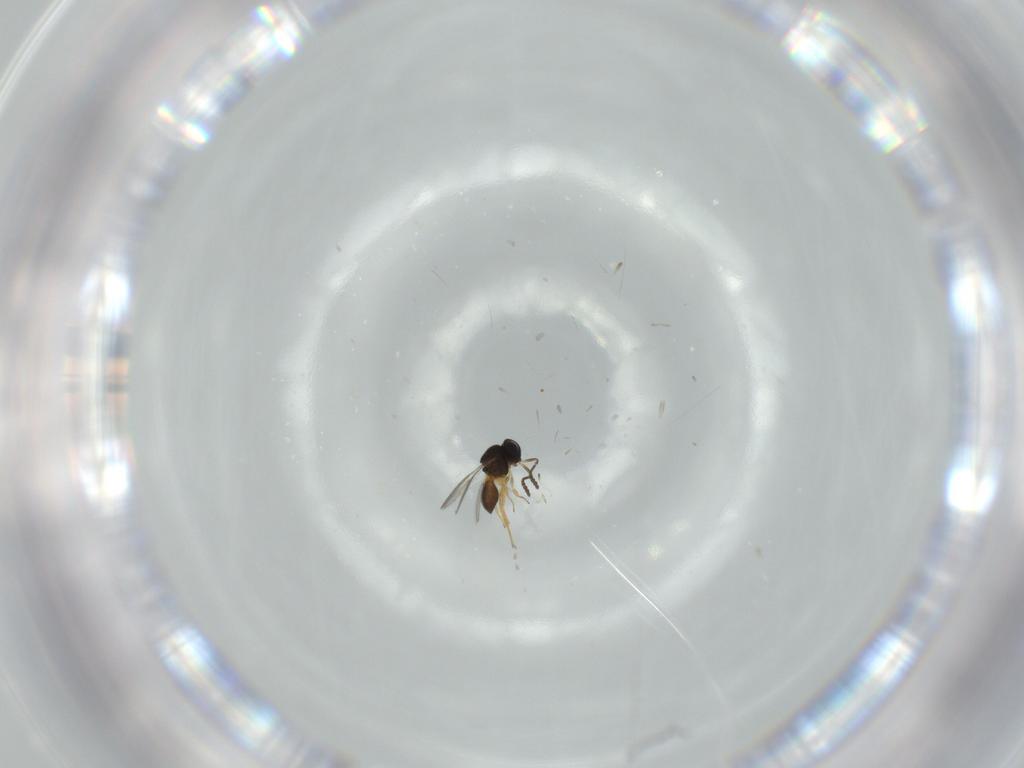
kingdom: Animalia
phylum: Arthropoda
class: Insecta
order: Hymenoptera
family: Scelionidae
